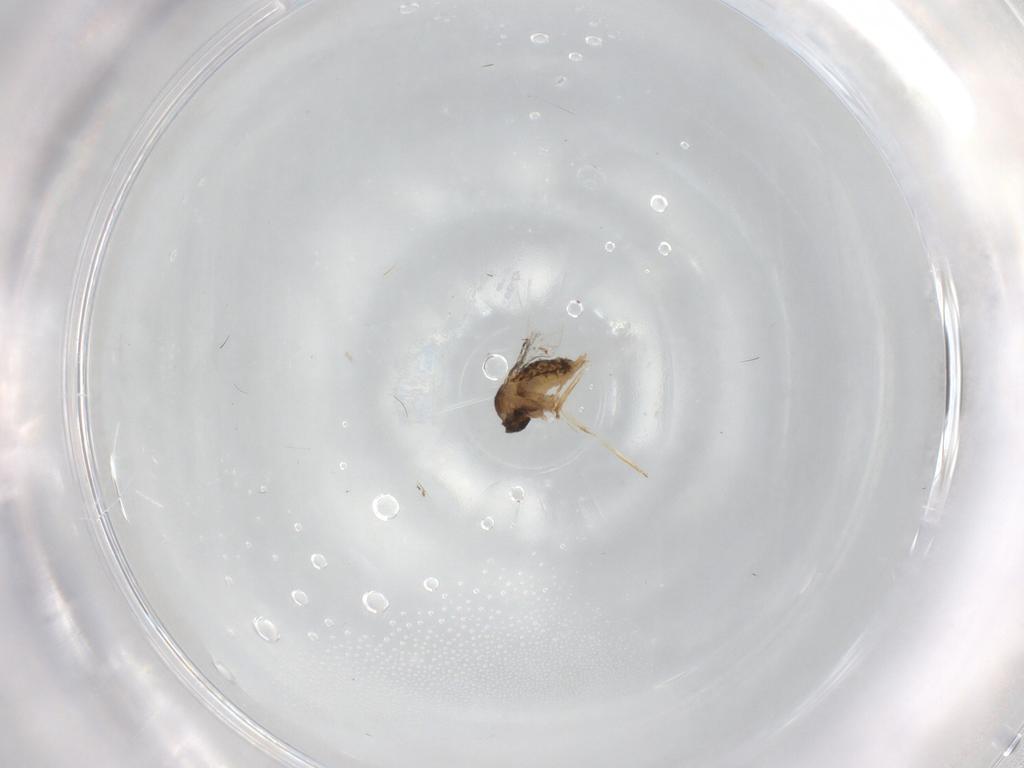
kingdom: Animalia
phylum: Arthropoda
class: Insecta
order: Diptera
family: Cecidomyiidae
